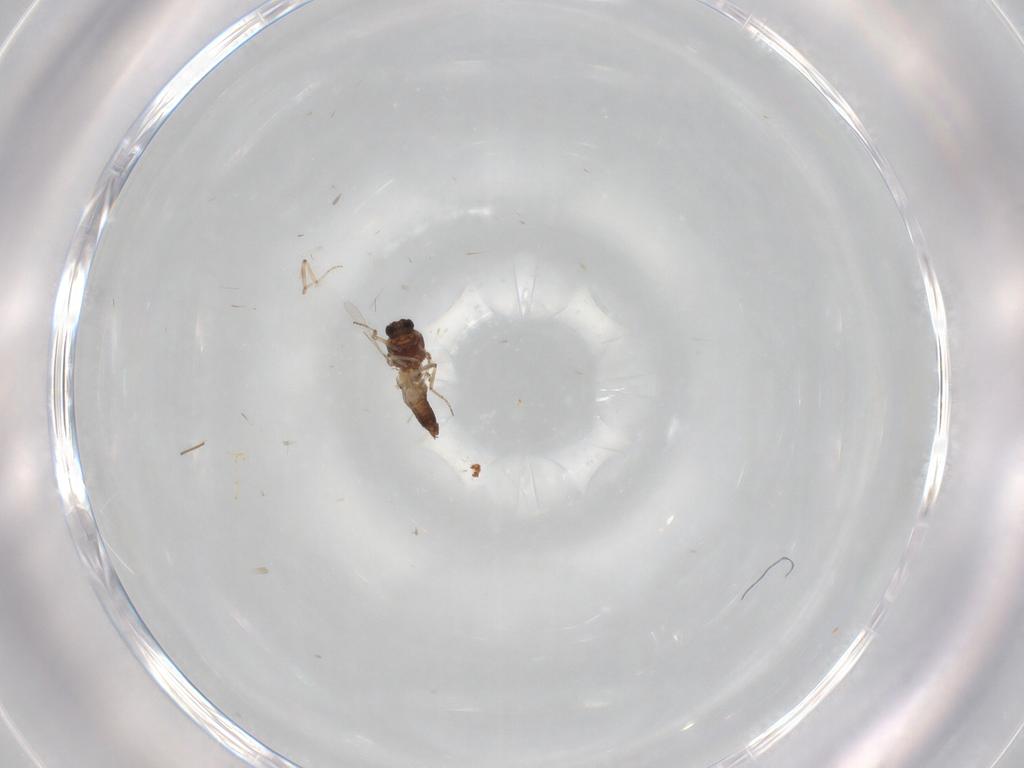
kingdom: Animalia
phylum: Arthropoda
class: Insecta
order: Diptera
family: Ceratopogonidae
